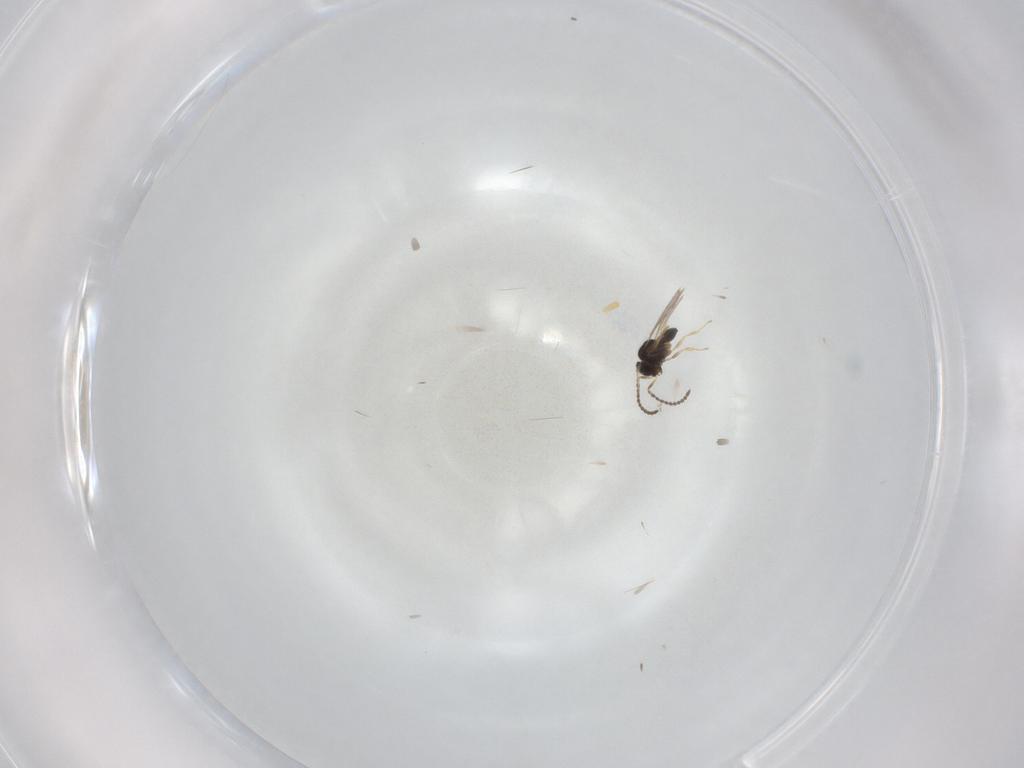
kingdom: Animalia
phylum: Arthropoda
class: Insecta
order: Hymenoptera
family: Scelionidae
